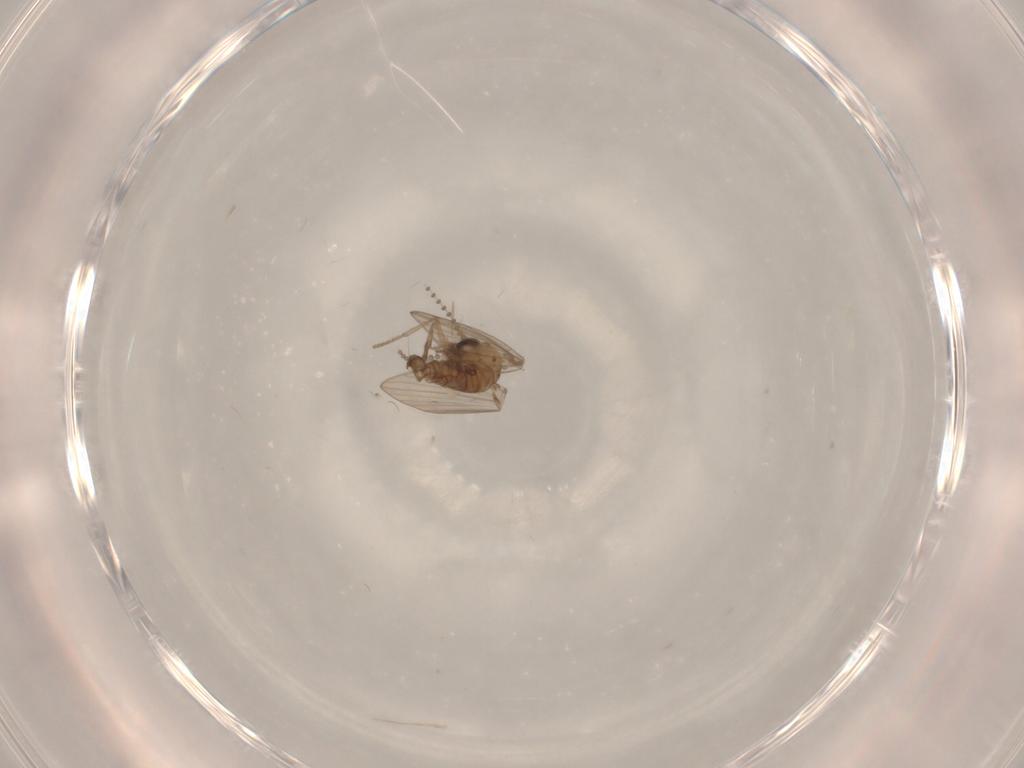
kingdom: Animalia
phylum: Arthropoda
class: Insecta
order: Diptera
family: Psychodidae
